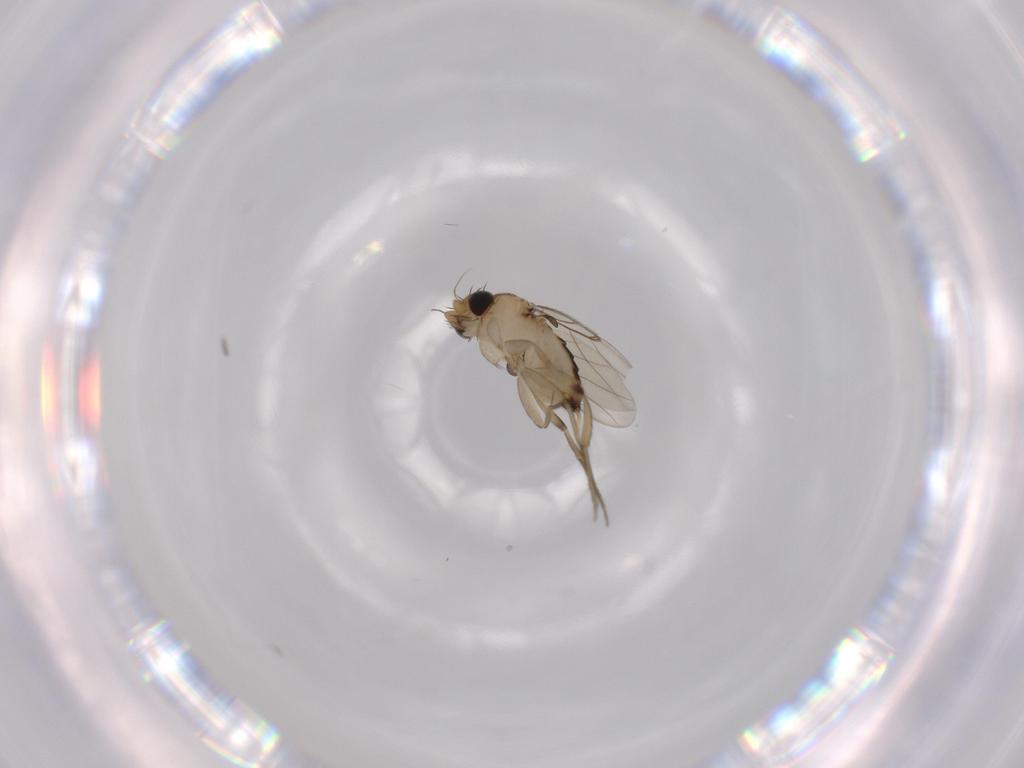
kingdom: Animalia
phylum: Arthropoda
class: Insecta
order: Diptera
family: Phoridae
